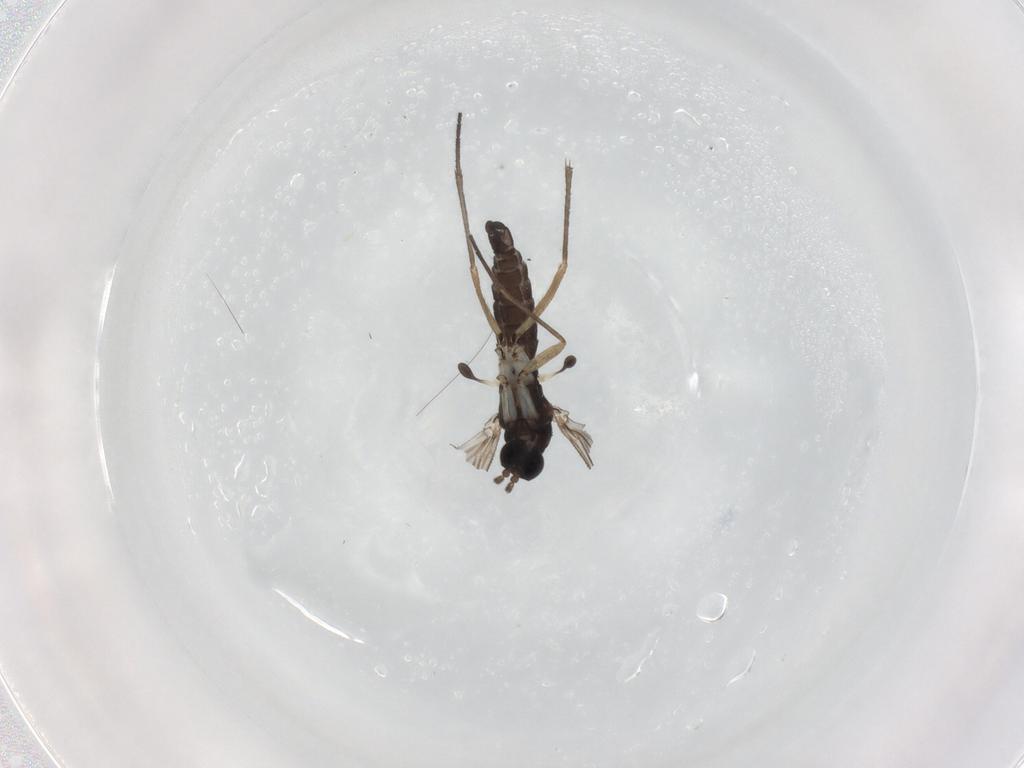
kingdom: Animalia
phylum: Arthropoda
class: Insecta
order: Diptera
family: Sciaridae
